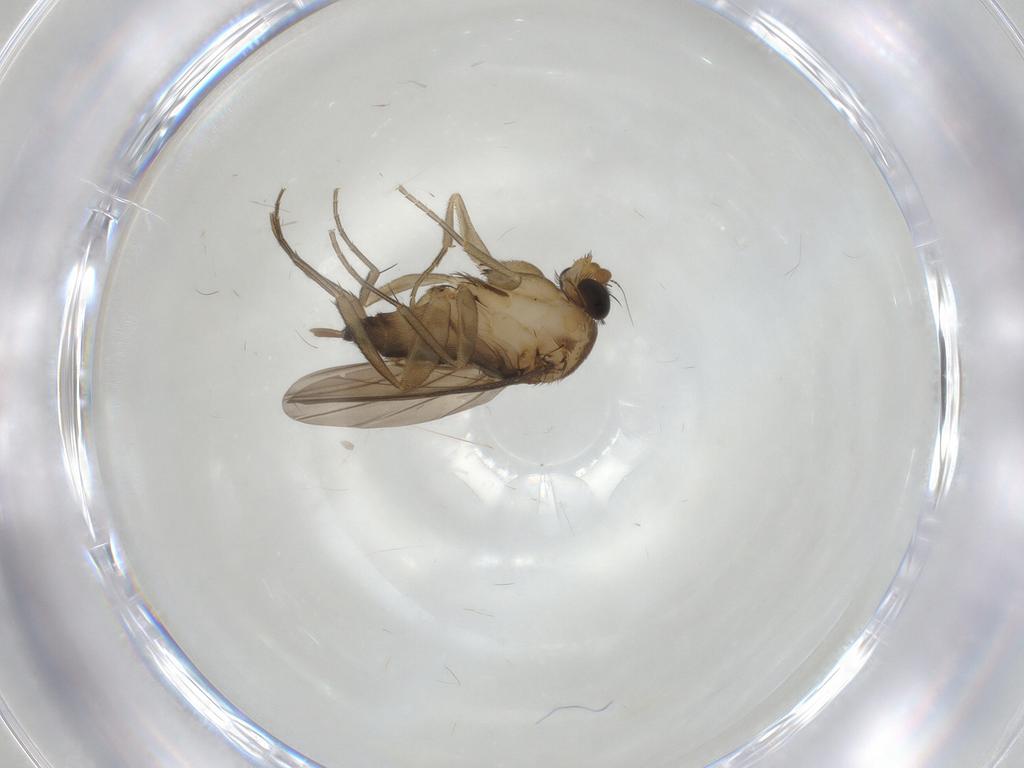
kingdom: Animalia
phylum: Arthropoda
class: Insecta
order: Diptera
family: Phoridae
